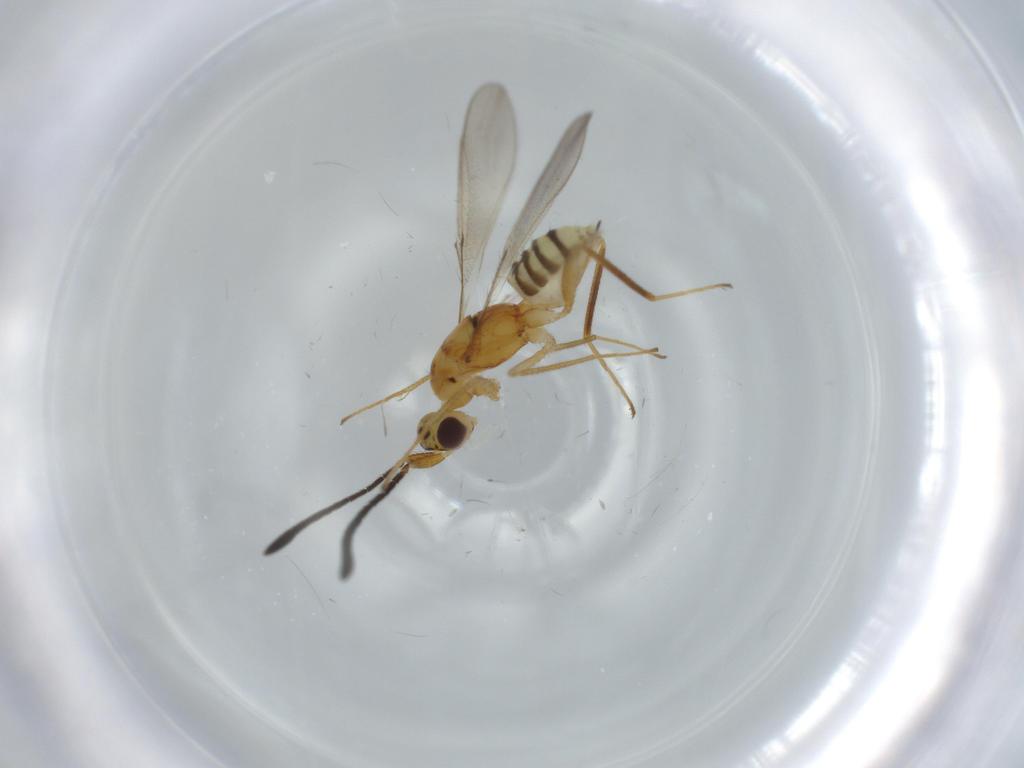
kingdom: Animalia
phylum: Arthropoda
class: Insecta
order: Hymenoptera
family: Mymaridae
